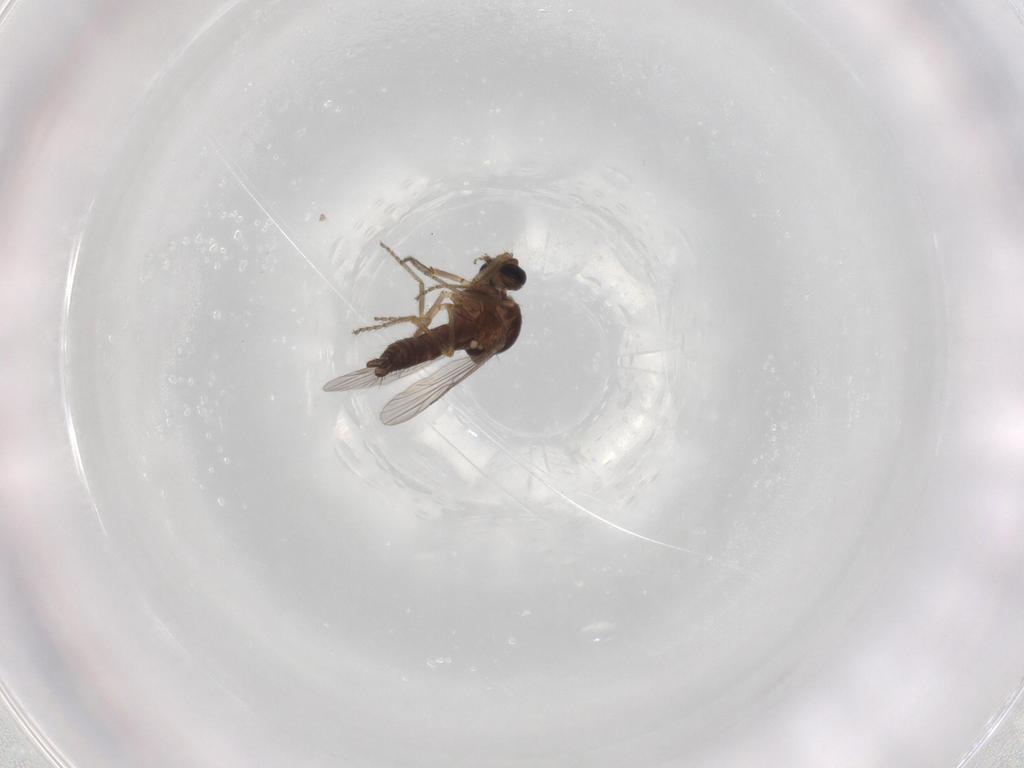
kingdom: Animalia
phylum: Arthropoda
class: Insecta
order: Diptera
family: Ceratopogonidae
